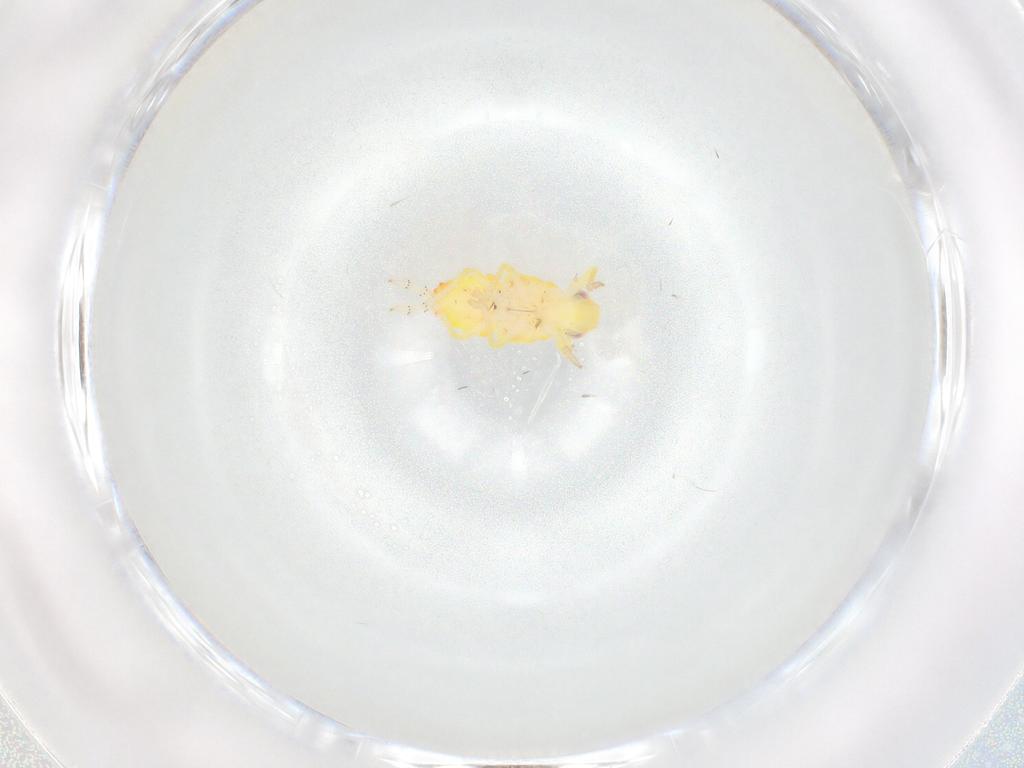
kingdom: Animalia
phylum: Arthropoda
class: Insecta
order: Hemiptera
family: Tropiduchidae
